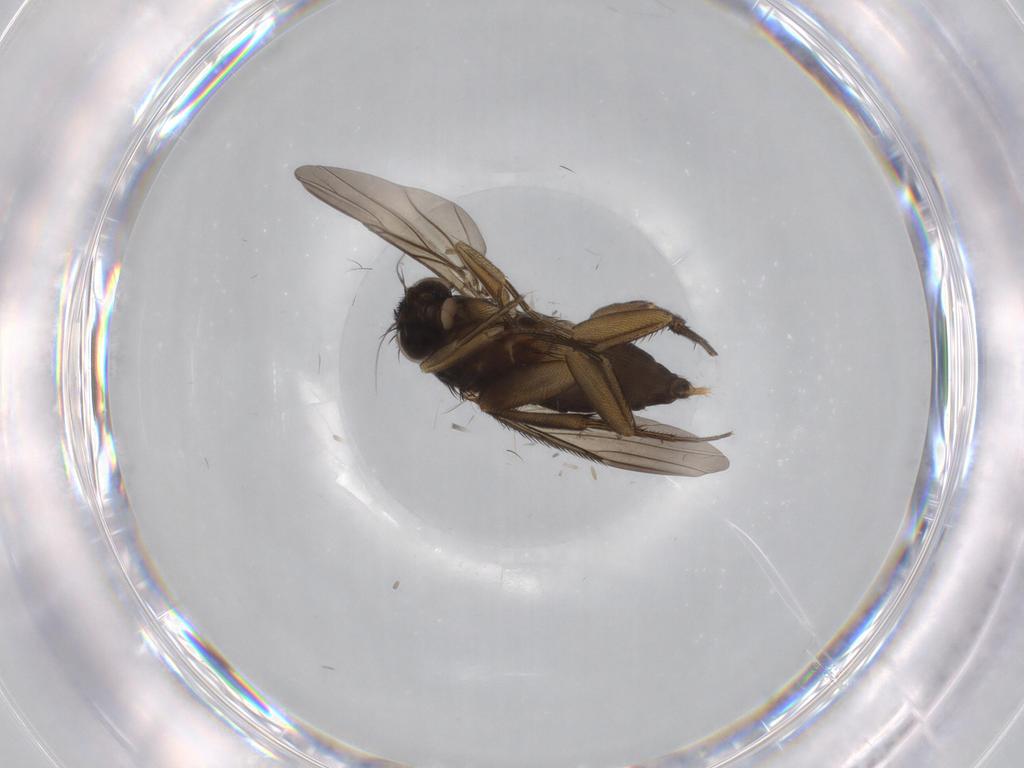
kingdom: Animalia
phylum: Arthropoda
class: Insecta
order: Diptera
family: Phoridae
